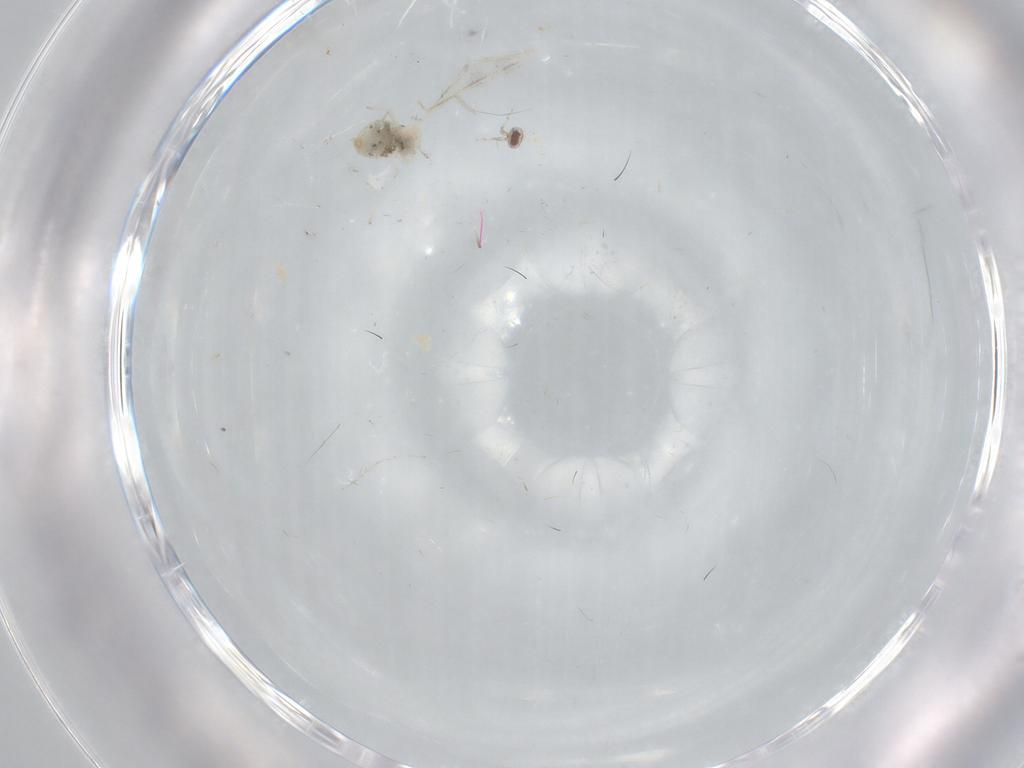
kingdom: Animalia
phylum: Arthropoda
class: Insecta
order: Diptera
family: Cecidomyiidae
